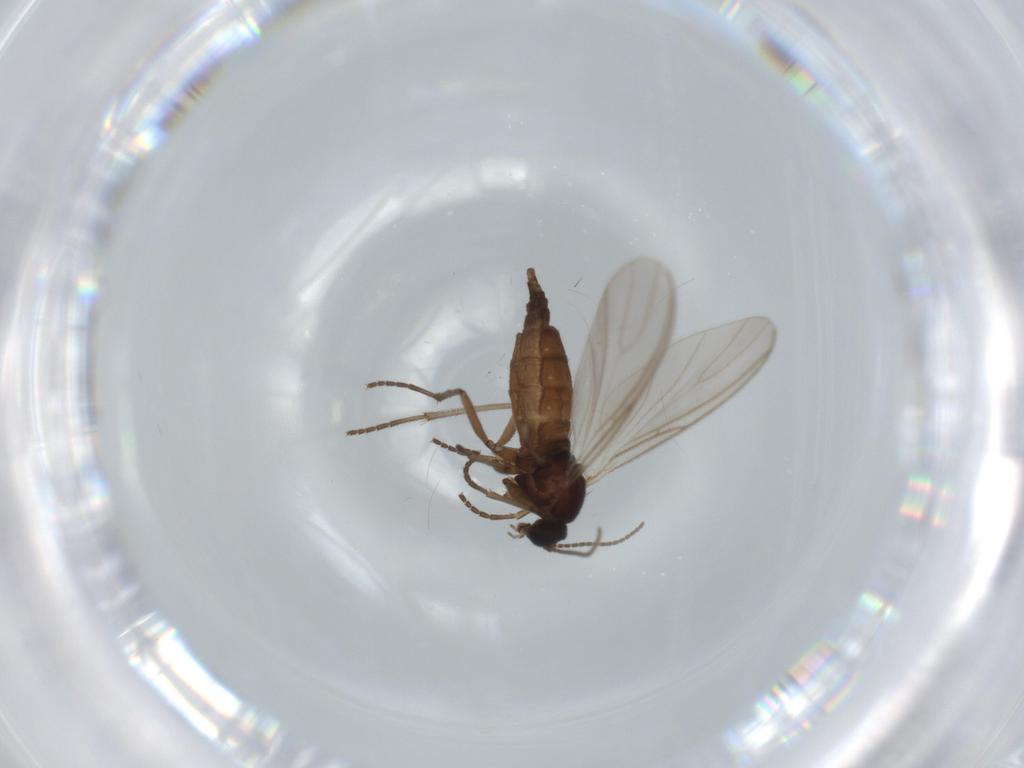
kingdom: Animalia
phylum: Arthropoda
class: Insecta
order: Diptera
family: Sciaridae
